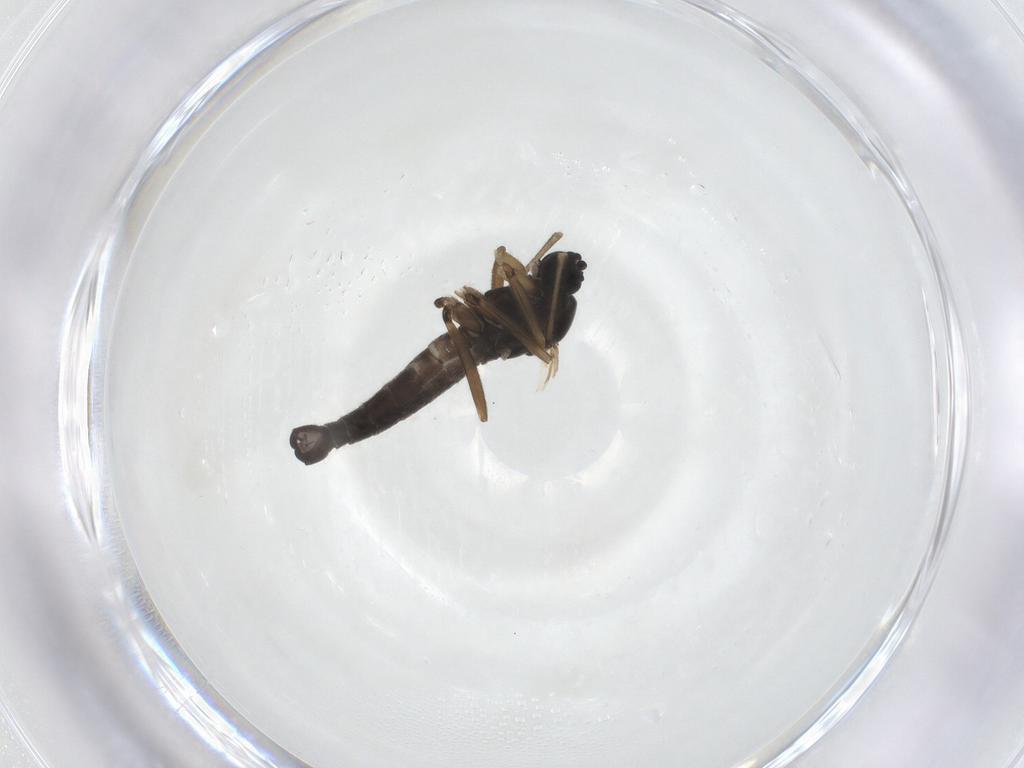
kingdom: Animalia
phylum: Arthropoda
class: Insecta
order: Diptera
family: Sciaridae
